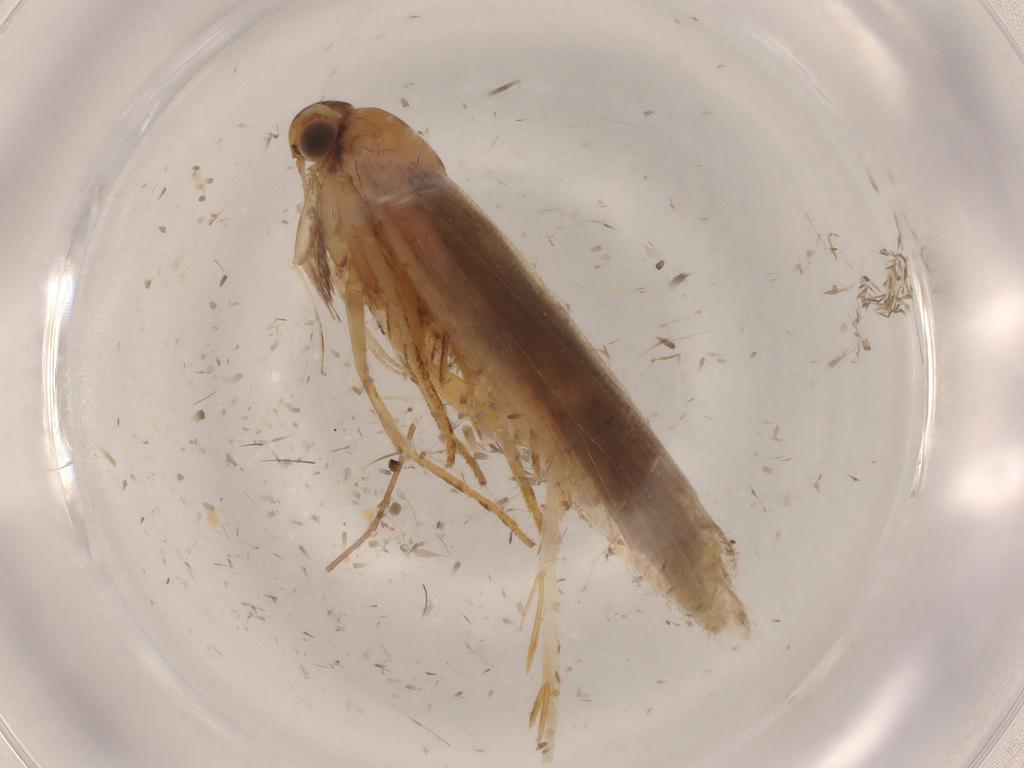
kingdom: Animalia
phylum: Arthropoda
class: Insecta
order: Lepidoptera
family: Gelechiidae
